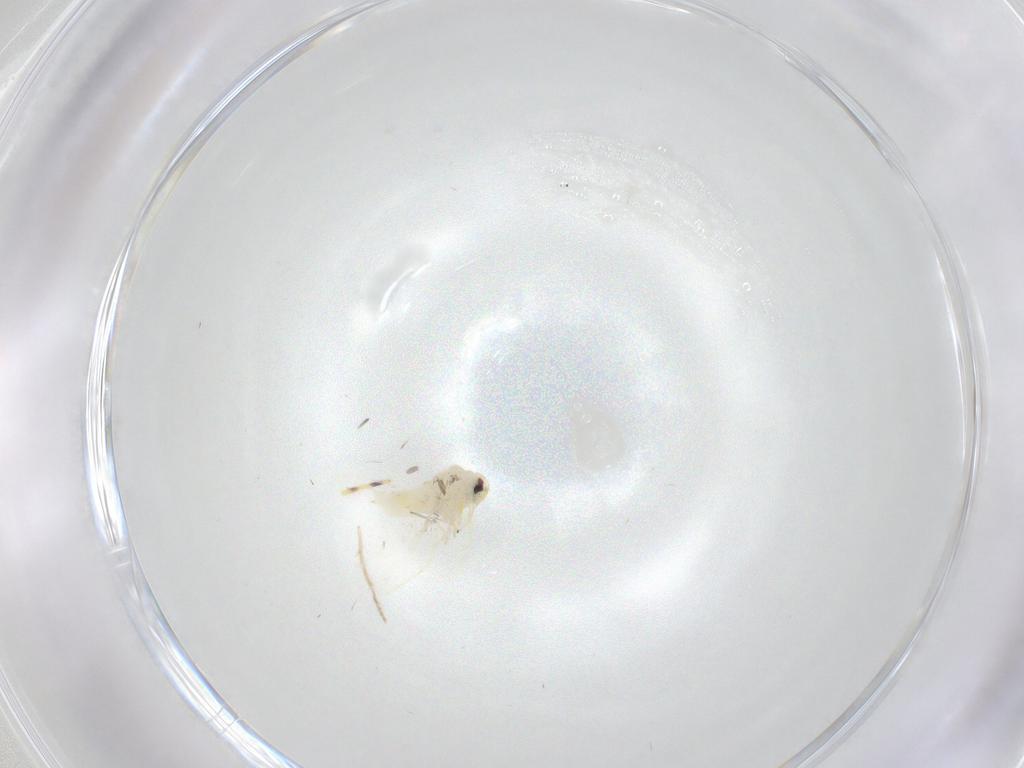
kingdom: Animalia
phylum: Arthropoda
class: Insecta
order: Hemiptera
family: Aleyrodidae
